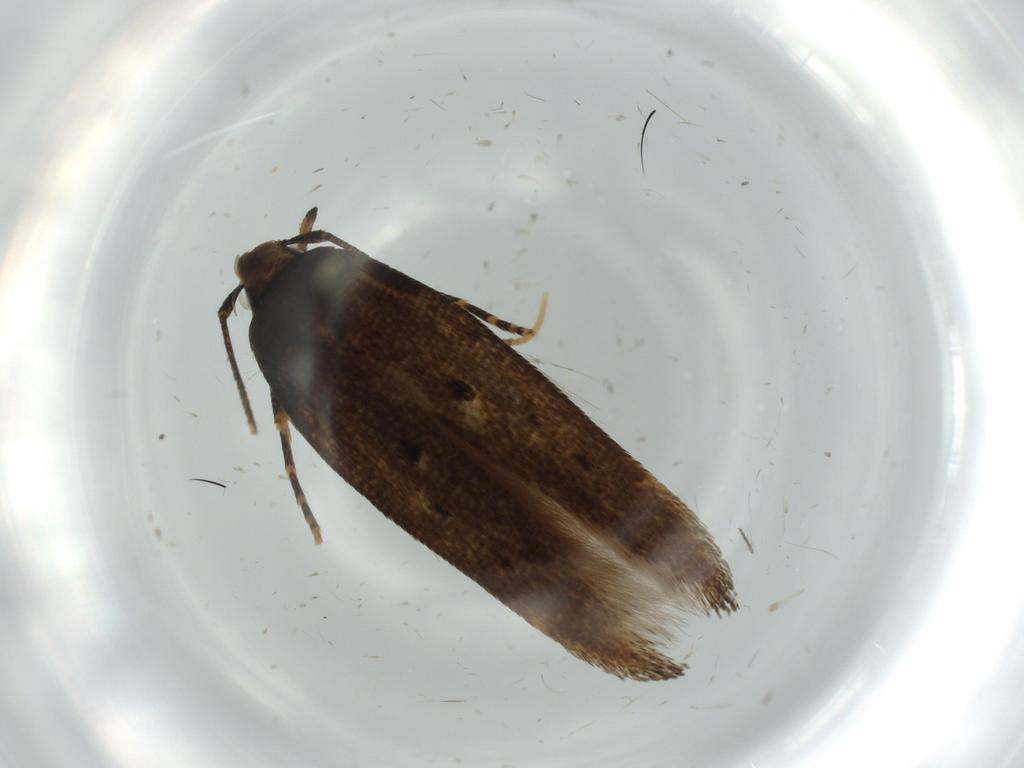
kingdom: Animalia
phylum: Arthropoda
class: Insecta
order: Lepidoptera
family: Cosmopterigidae
